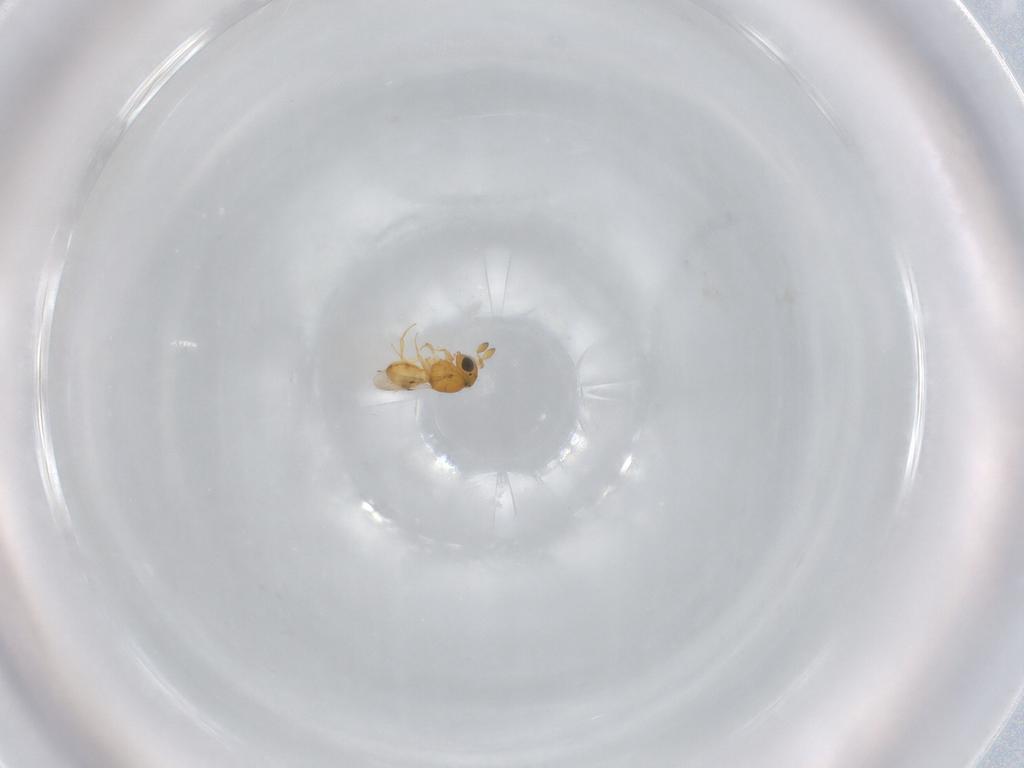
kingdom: Animalia
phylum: Arthropoda
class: Insecta
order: Hymenoptera
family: Scelionidae
